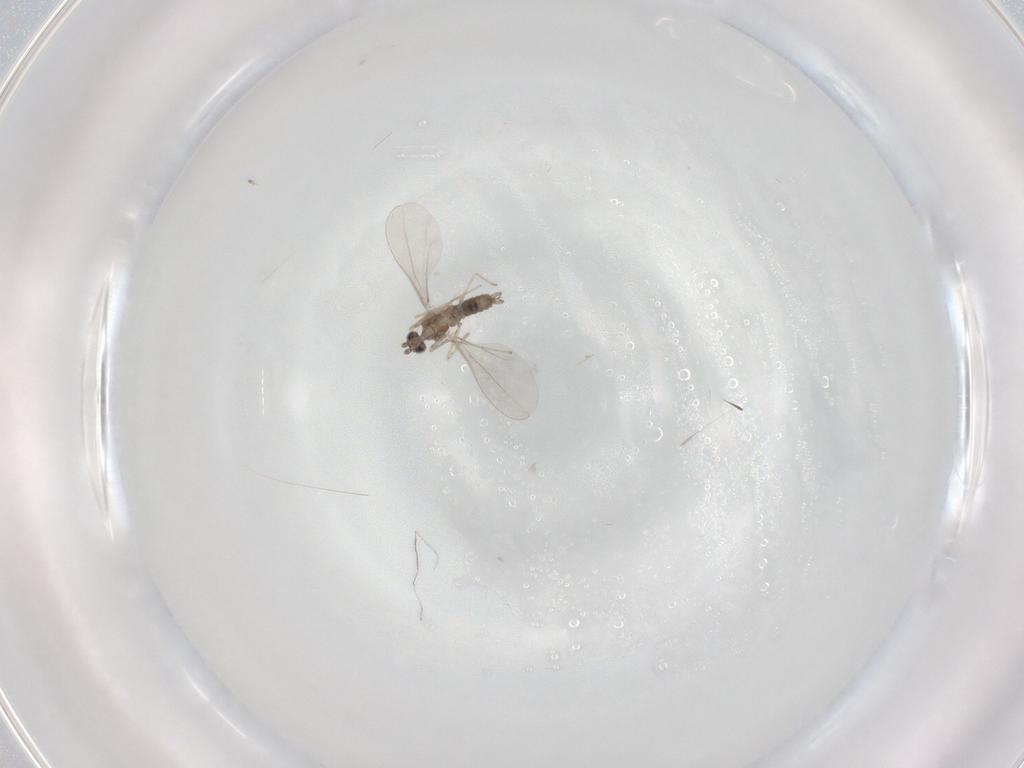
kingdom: Animalia
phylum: Arthropoda
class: Insecta
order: Diptera
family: Cecidomyiidae
